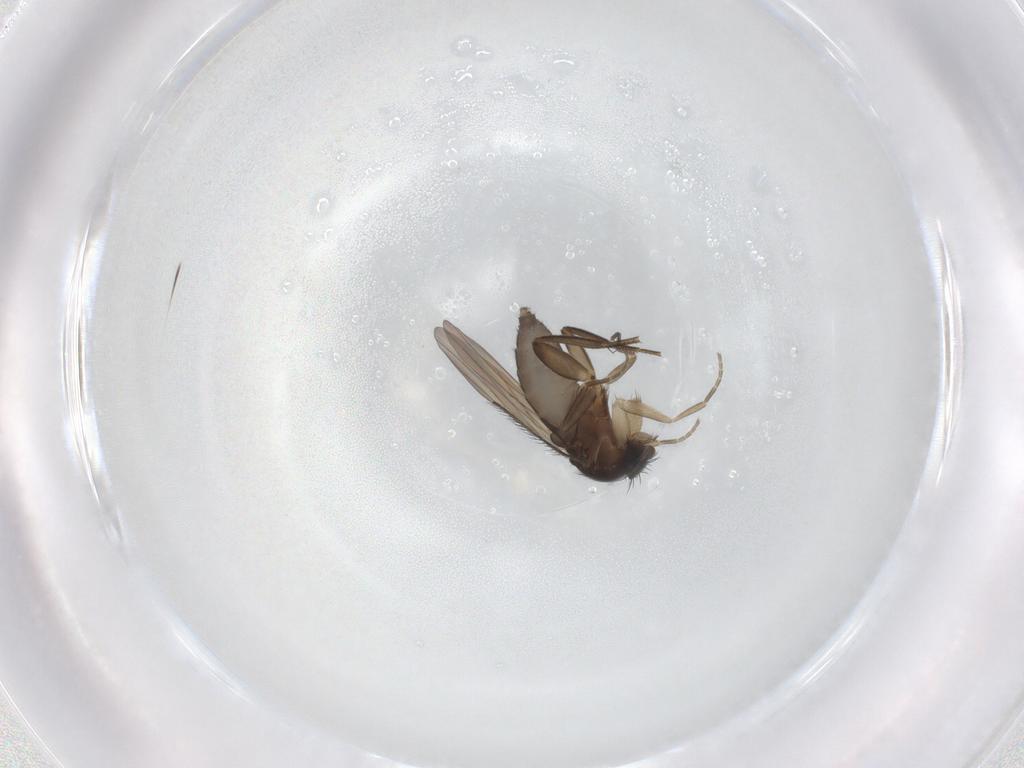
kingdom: Animalia
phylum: Arthropoda
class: Insecta
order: Diptera
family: Phoridae
